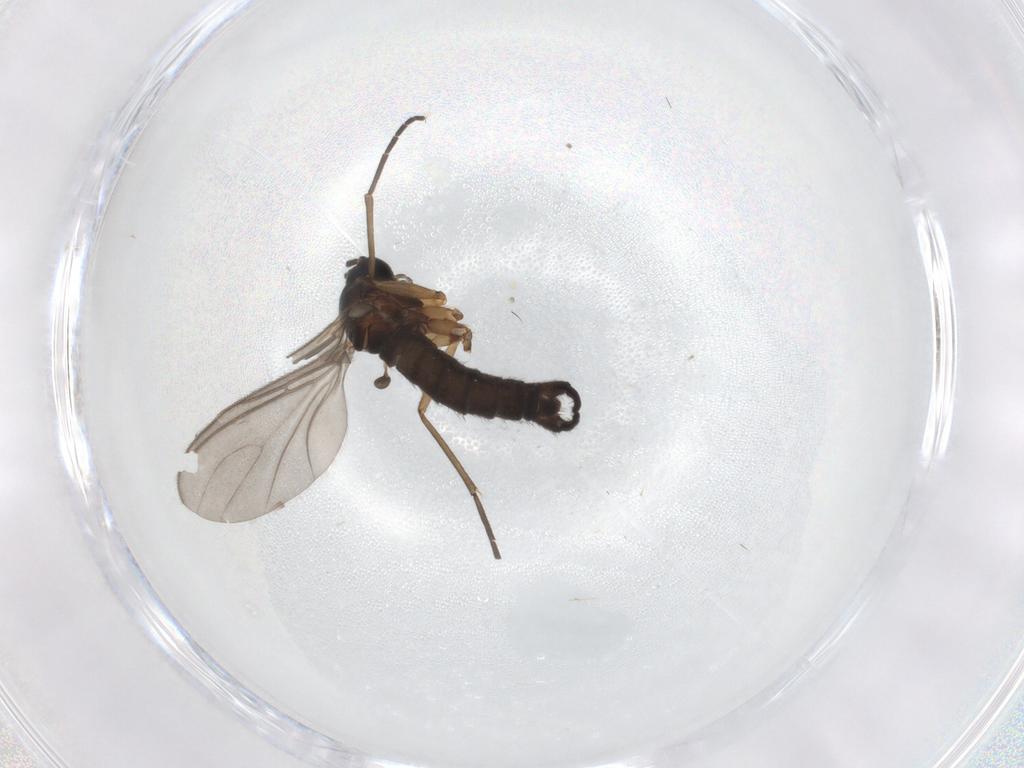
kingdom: Animalia
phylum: Arthropoda
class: Insecta
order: Diptera
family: Sciaridae
